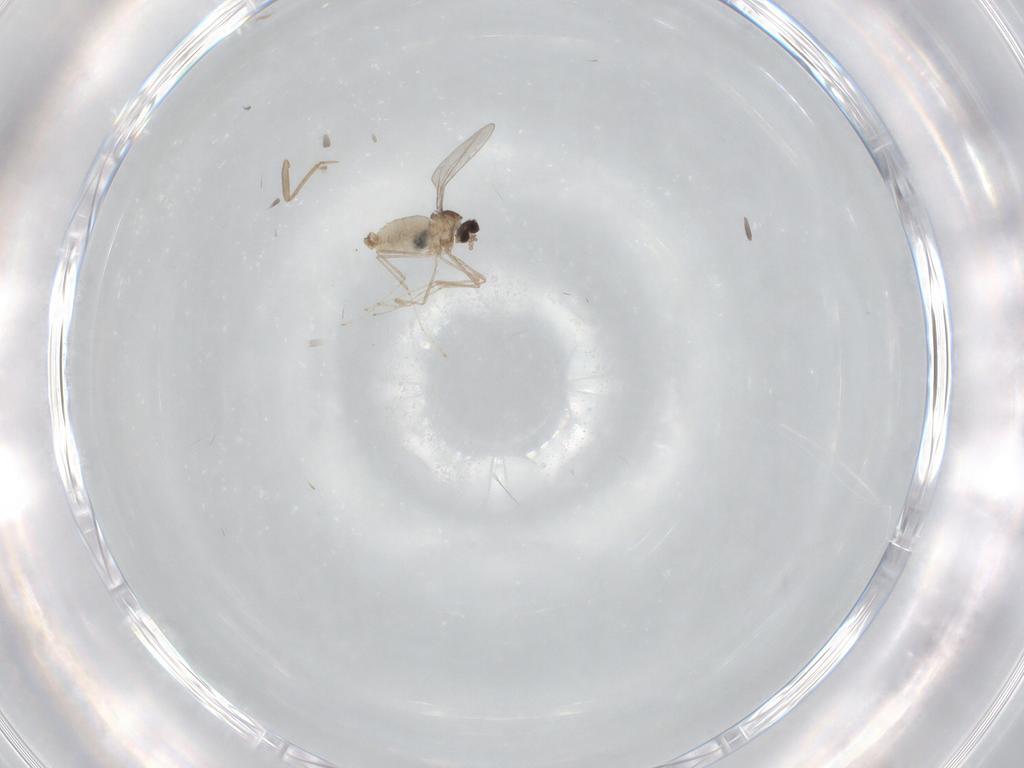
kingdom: Animalia
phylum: Arthropoda
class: Insecta
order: Diptera
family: Cecidomyiidae
